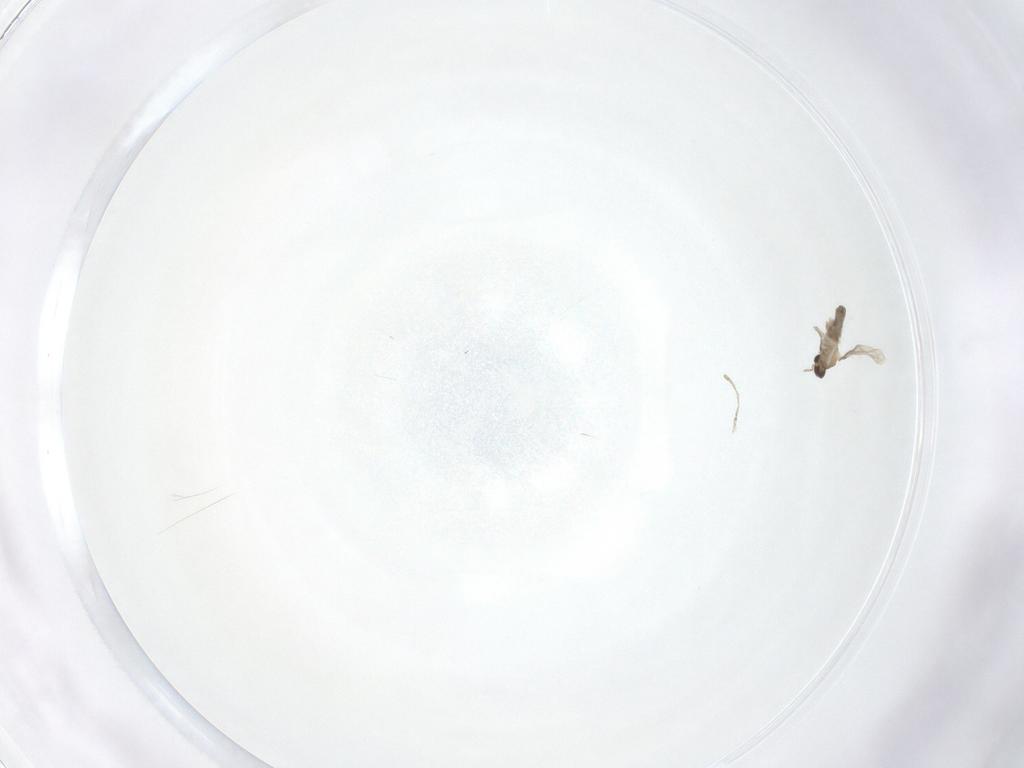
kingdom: Animalia
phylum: Arthropoda
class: Insecta
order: Diptera
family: Cecidomyiidae
